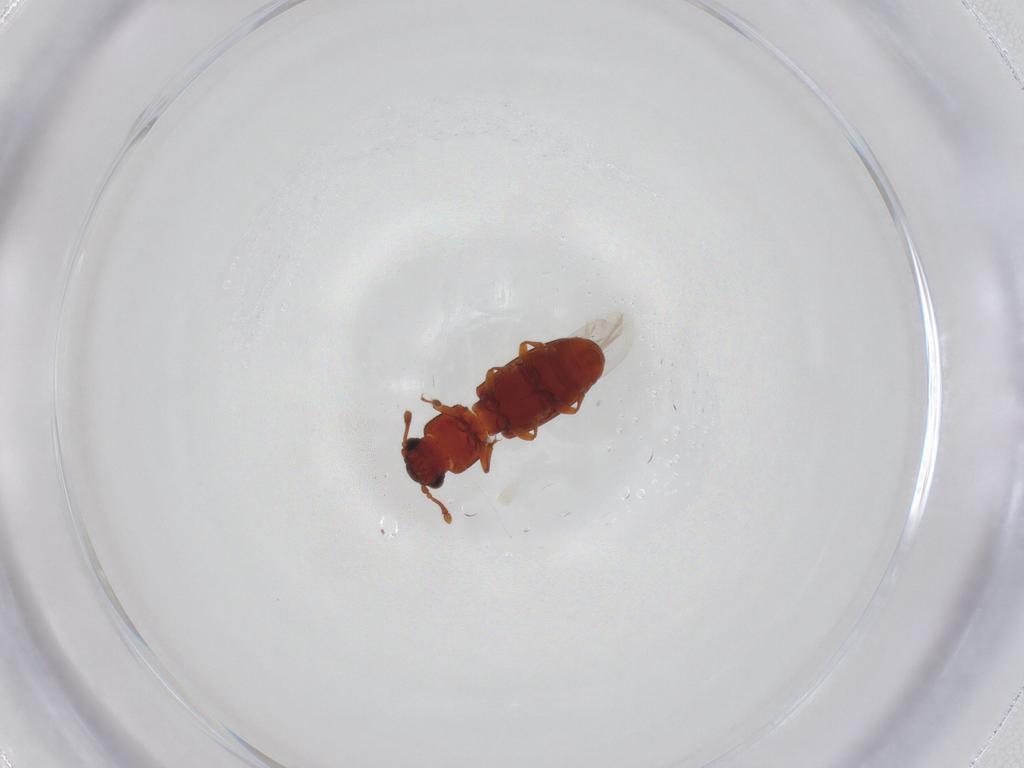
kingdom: Animalia
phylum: Arthropoda
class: Insecta
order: Coleoptera
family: Monotomidae
